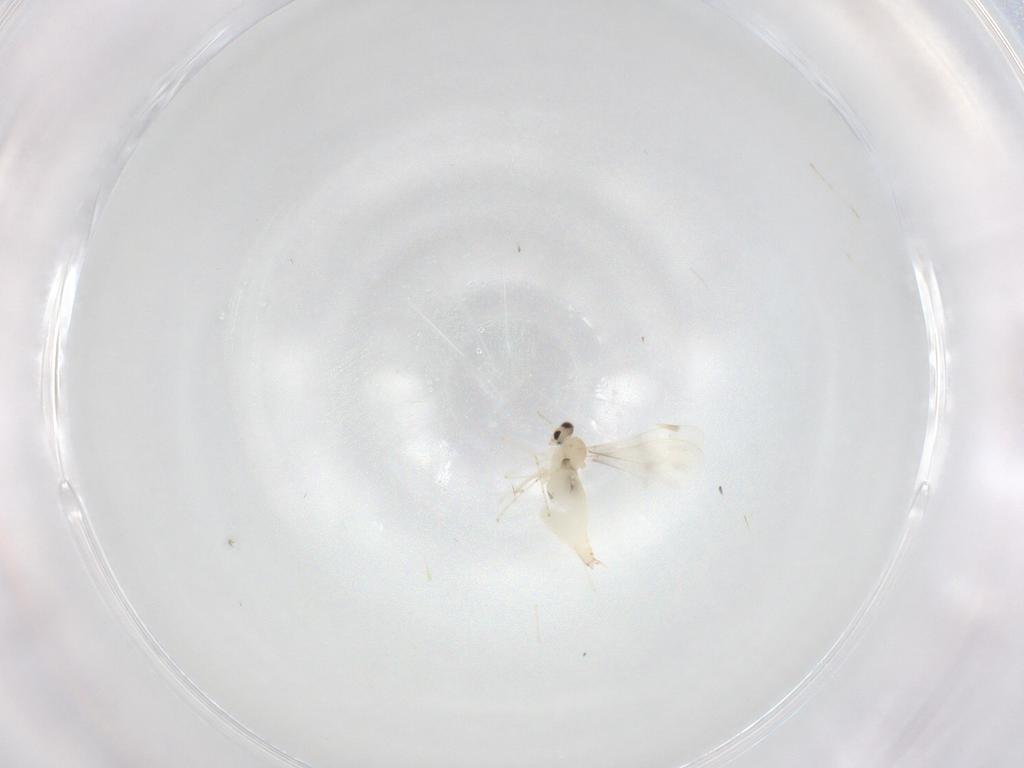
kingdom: Animalia
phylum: Arthropoda
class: Insecta
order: Diptera
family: Cecidomyiidae
